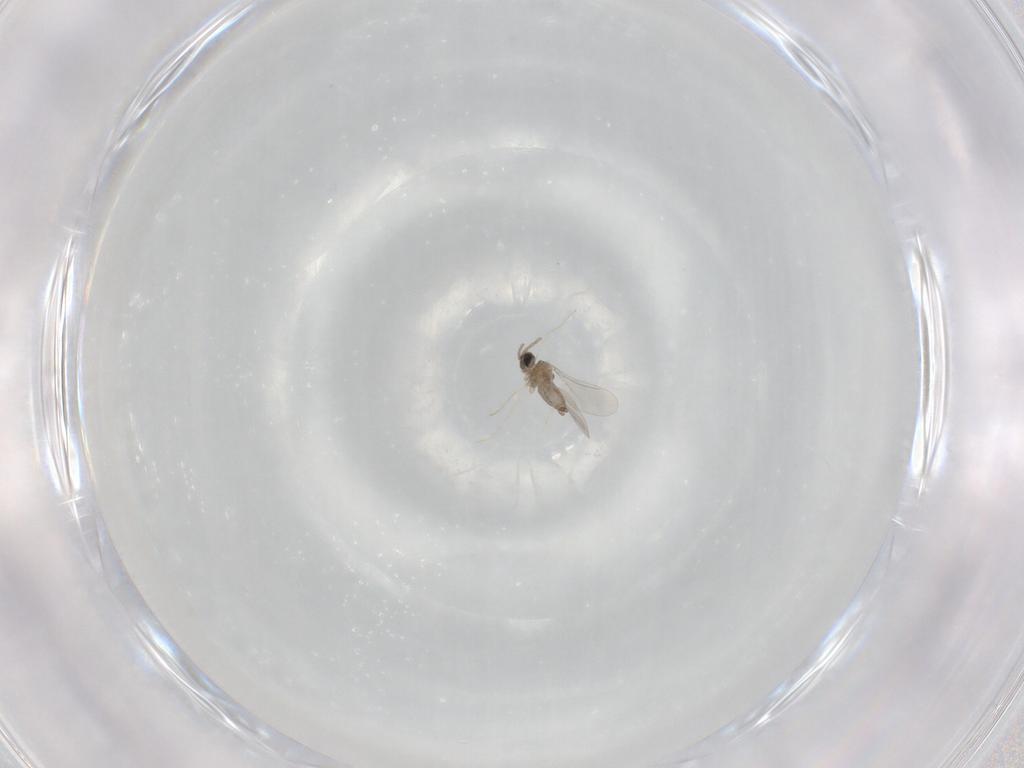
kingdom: Animalia
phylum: Arthropoda
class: Insecta
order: Diptera
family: Cecidomyiidae
